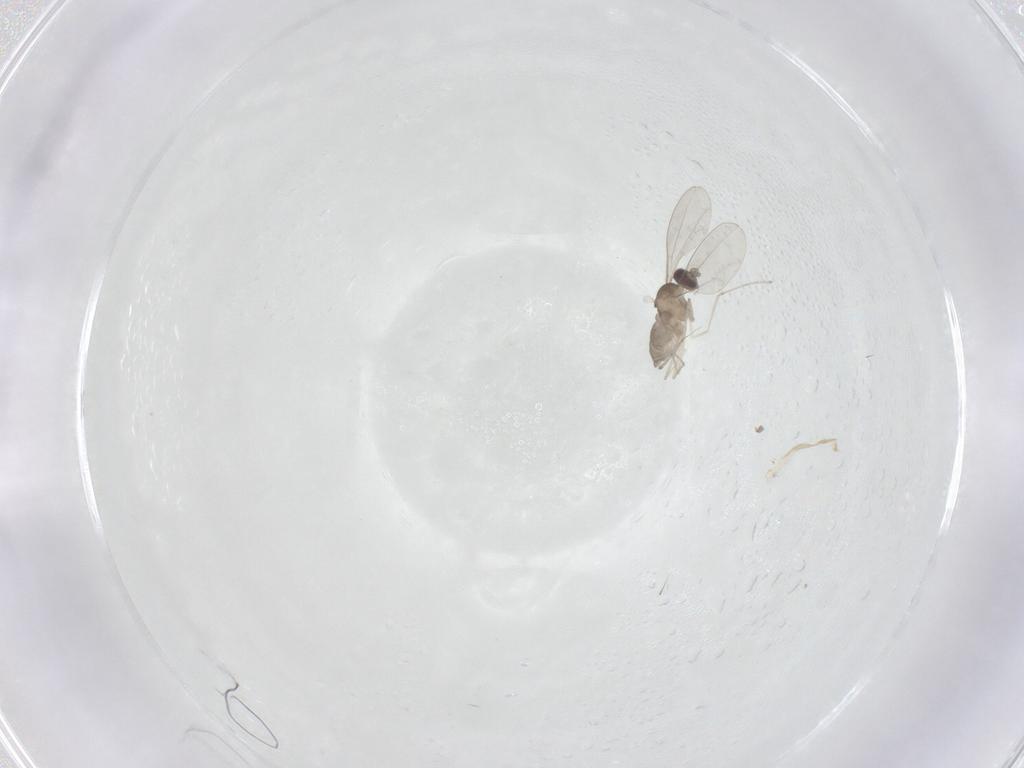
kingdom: Animalia
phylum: Arthropoda
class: Insecta
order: Diptera
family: Cecidomyiidae
